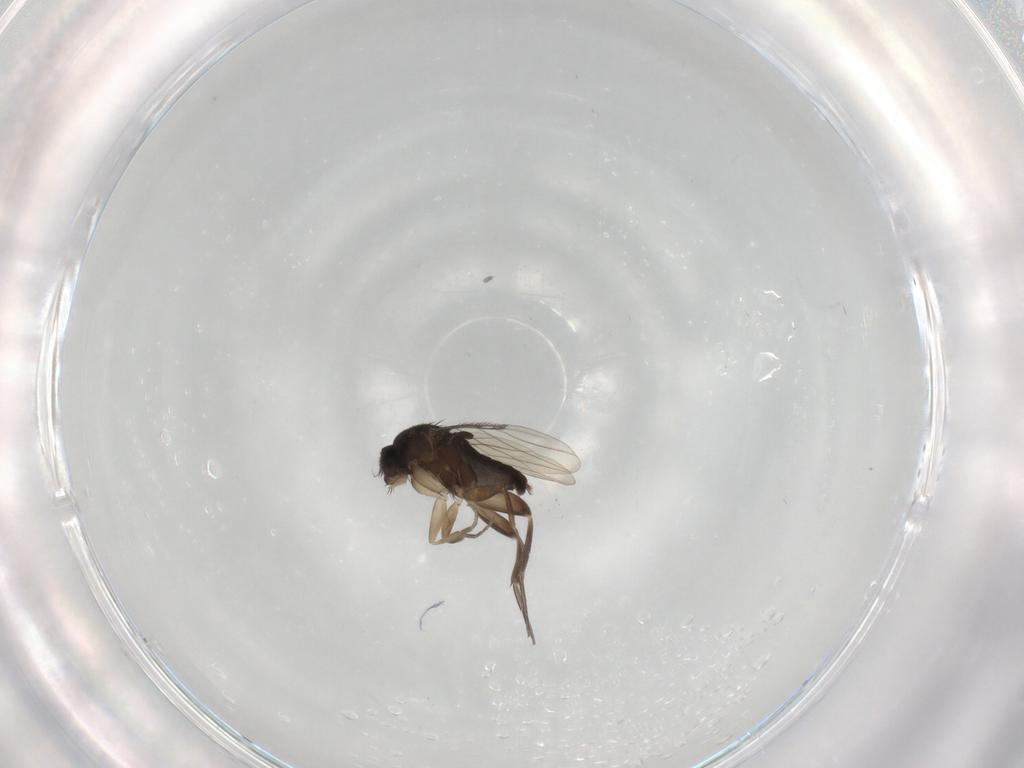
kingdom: Animalia
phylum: Arthropoda
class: Insecta
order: Diptera
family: Phoridae
